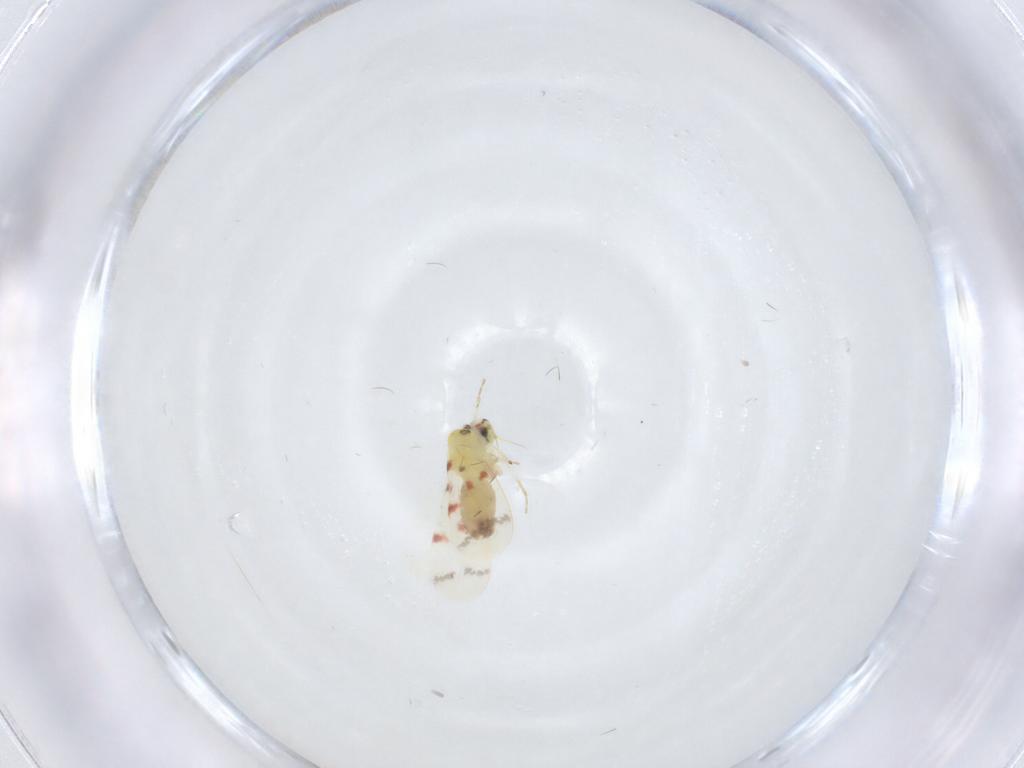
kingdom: Animalia
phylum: Arthropoda
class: Insecta
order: Hemiptera
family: Aleyrodidae
